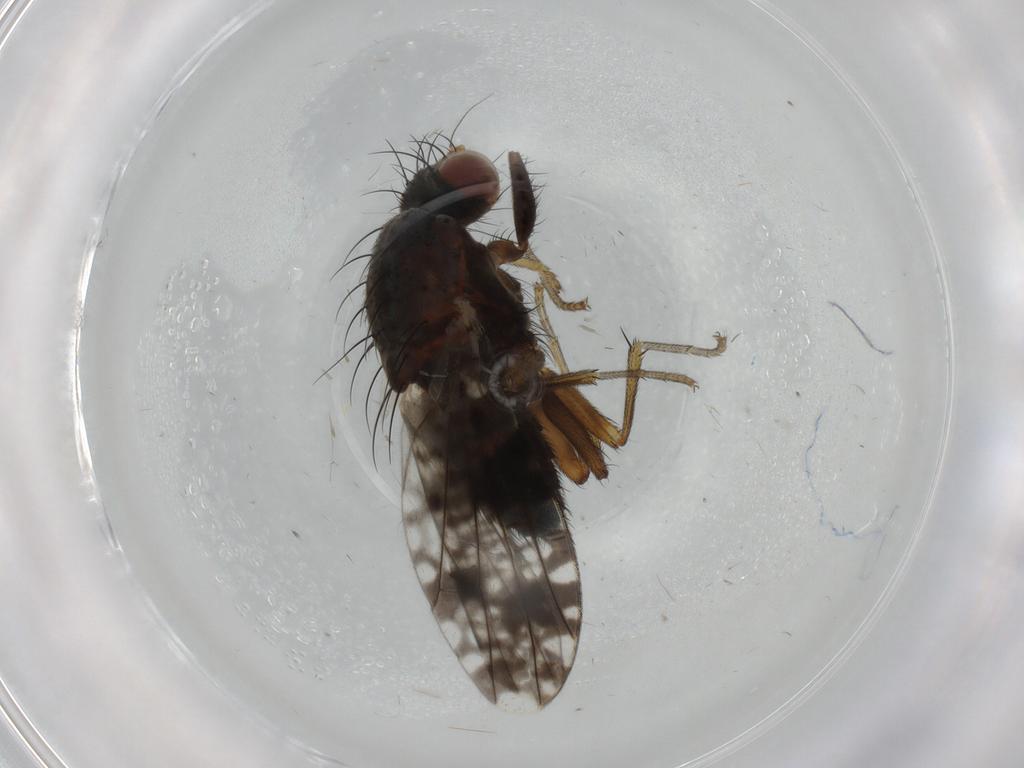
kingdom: Animalia
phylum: Arthropoda
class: Insecta
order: Diptera
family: Tephritidae
